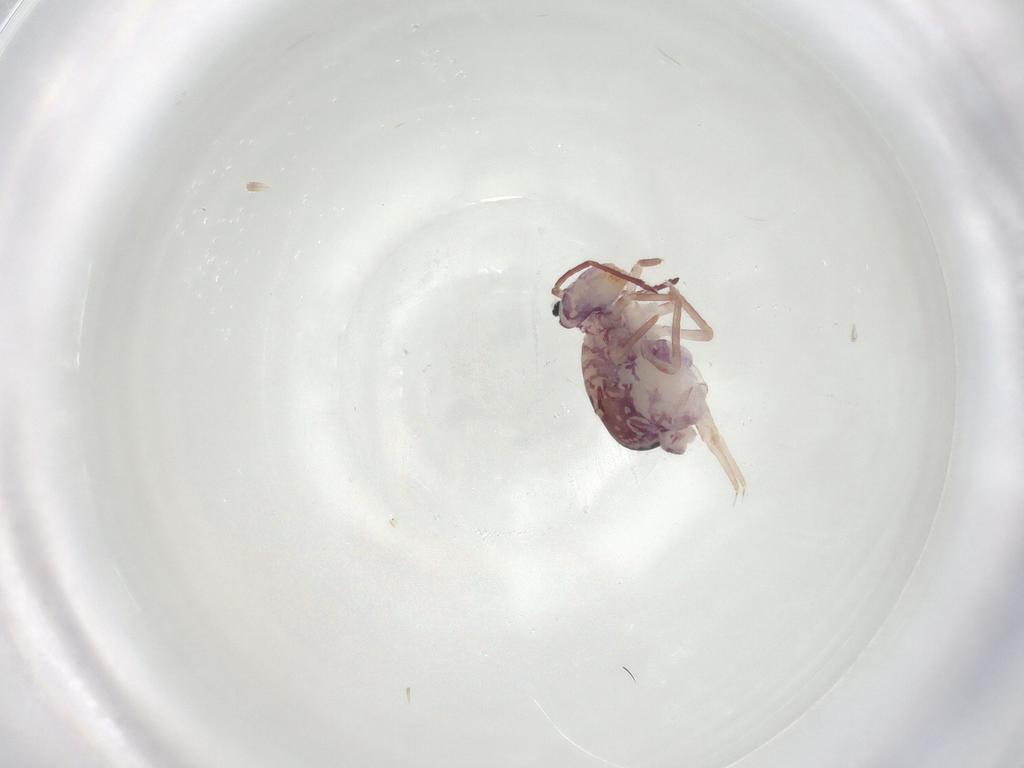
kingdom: Animalia
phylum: Arthropoda
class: Collembola
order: Symphypleona
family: Dicyrtomidae
